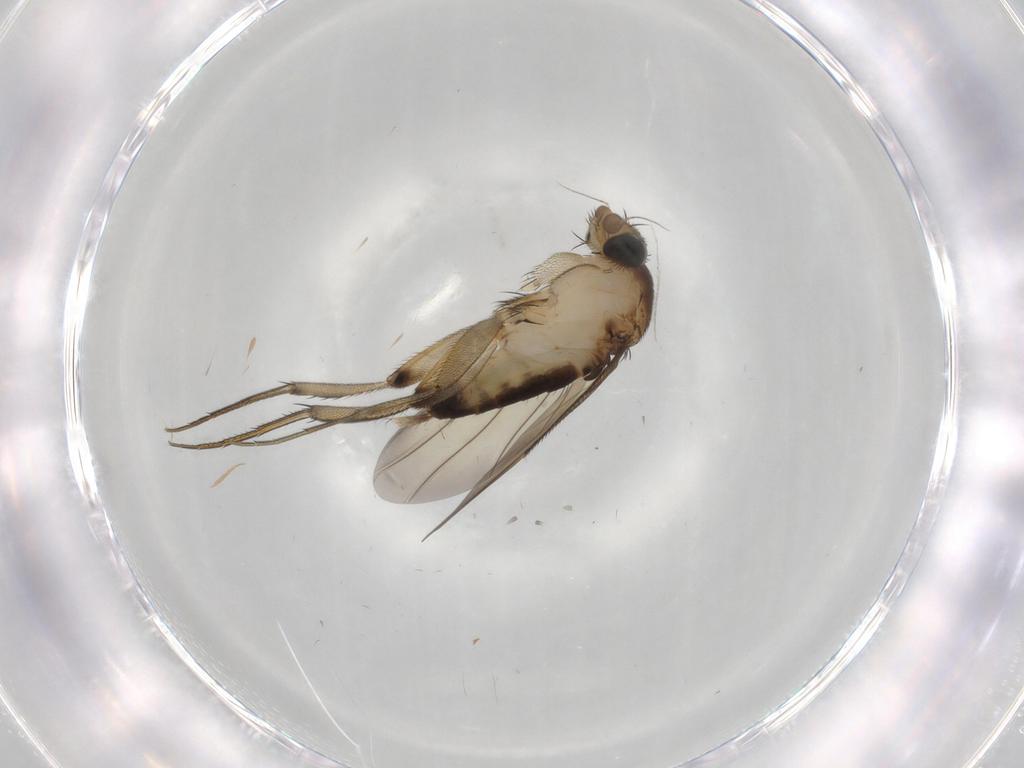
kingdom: Animalia
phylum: Arthropoda
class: Insecta
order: Diptera
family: Phoridae
